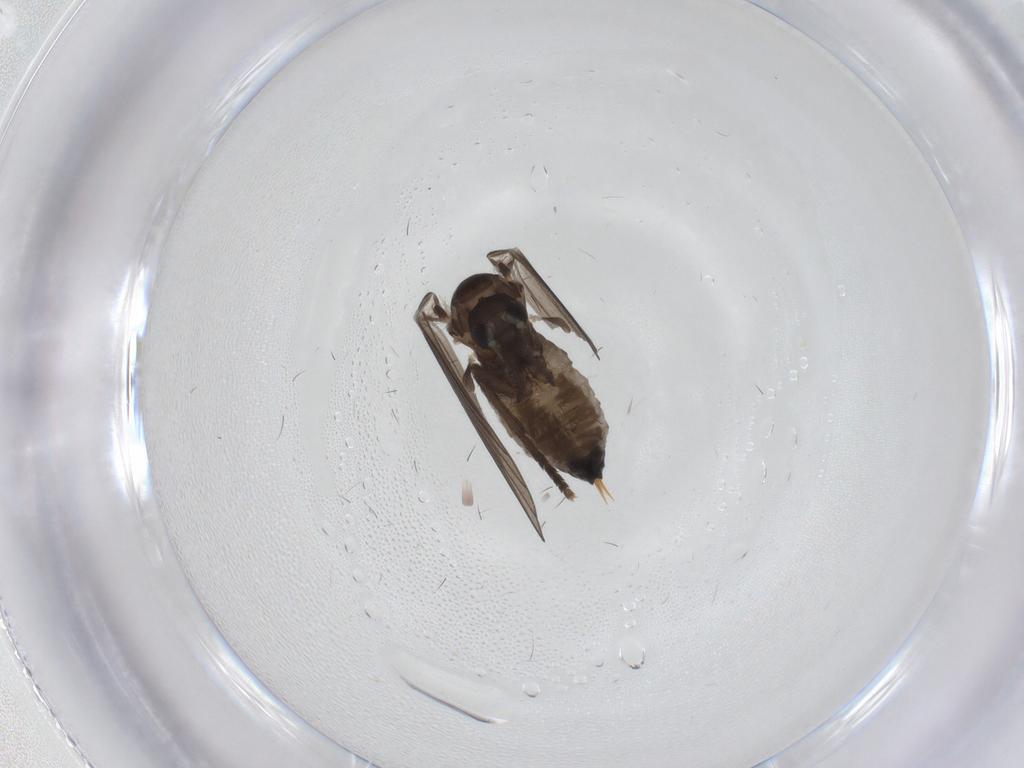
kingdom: Animalia
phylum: Arthropoda
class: Insecta
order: Diptera
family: Psychodidae
